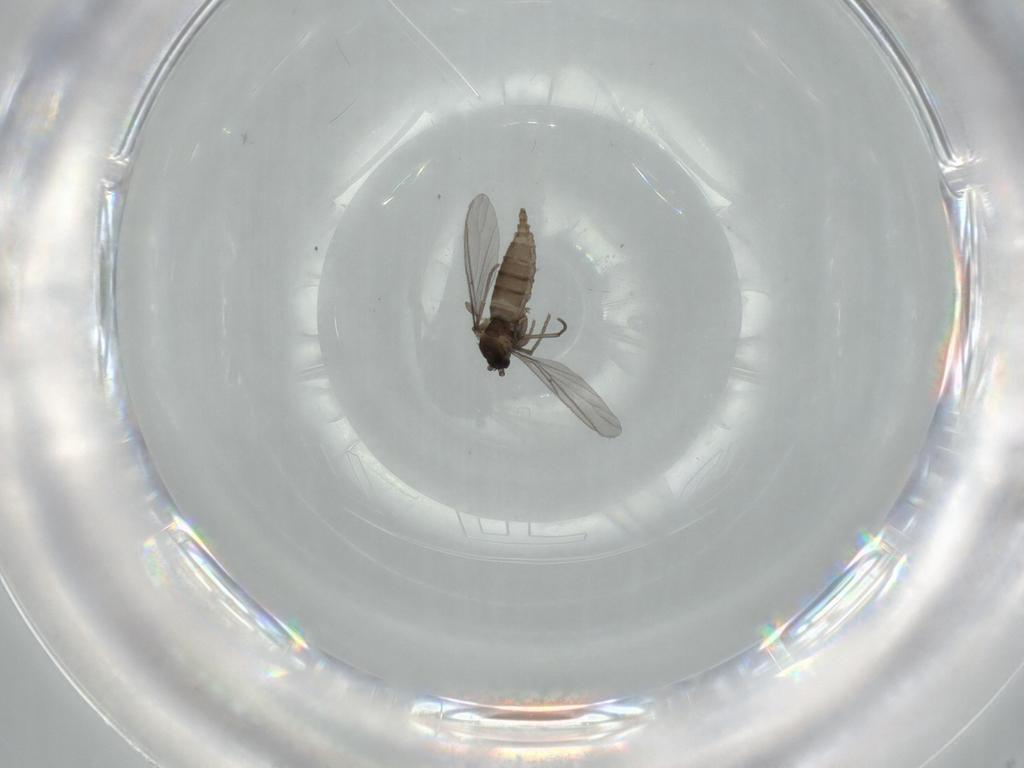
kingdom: Animalia
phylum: Arthropoda
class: Insecta
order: Diptera
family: Sciaridae
